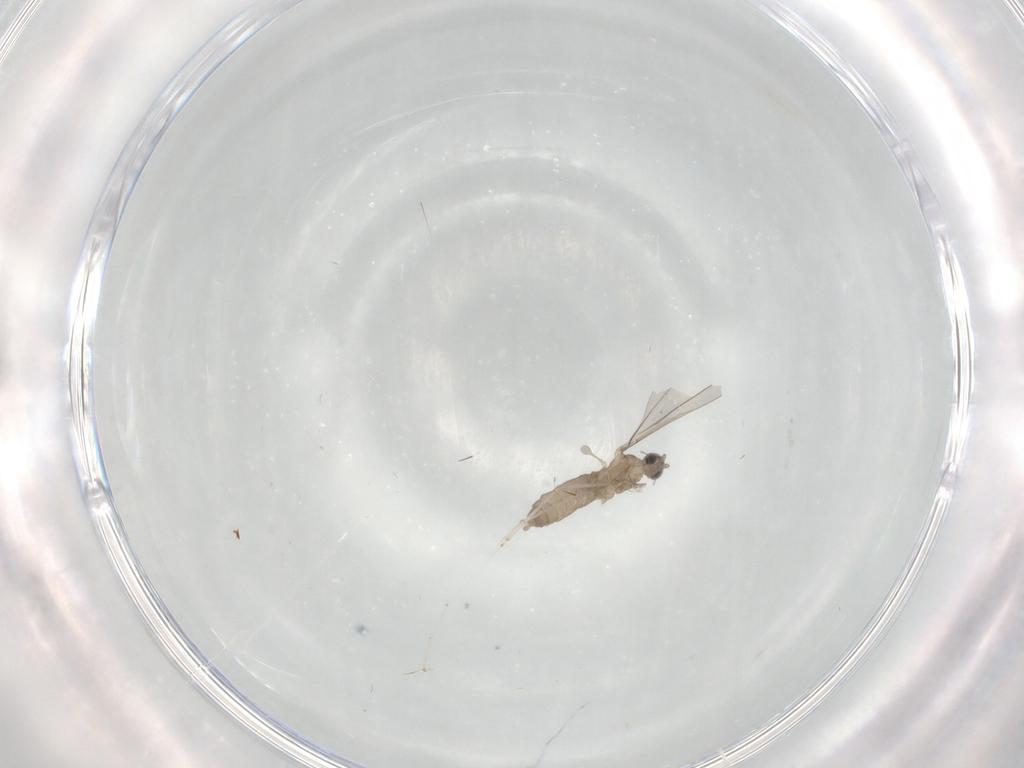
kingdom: Animalia
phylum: Arthropoda
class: Insecta
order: Diptera
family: Cecidomyiidae
